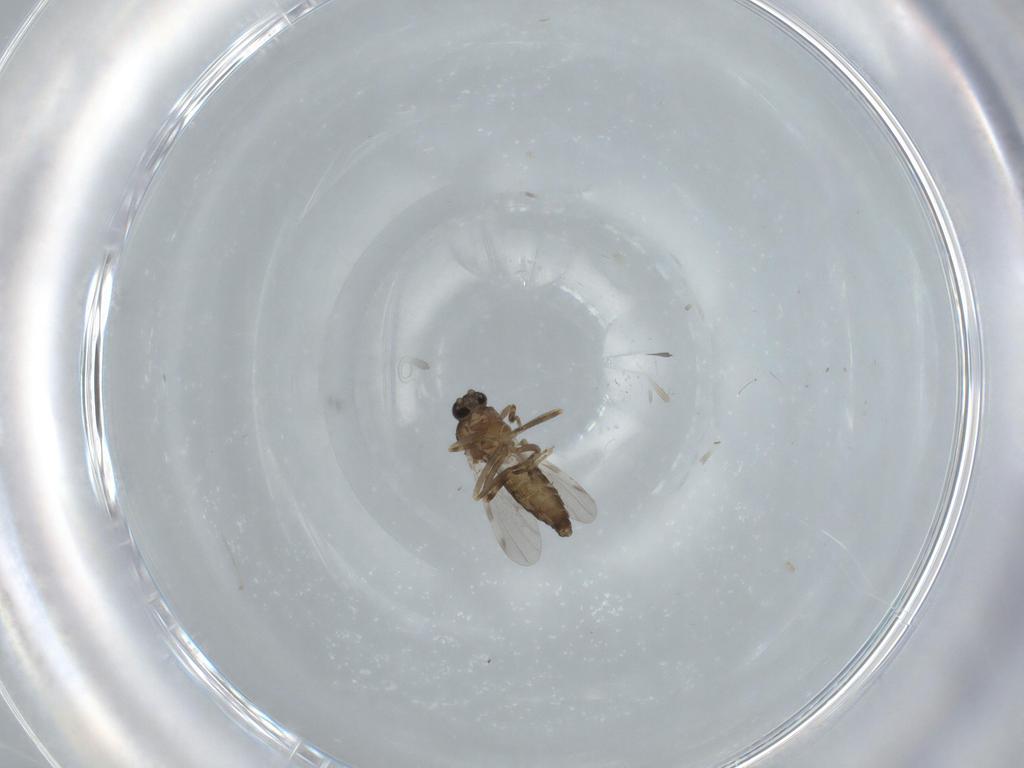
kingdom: Animalia
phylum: Arthropoda
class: Insecta
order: Diptera
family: Ceratopogonidae
